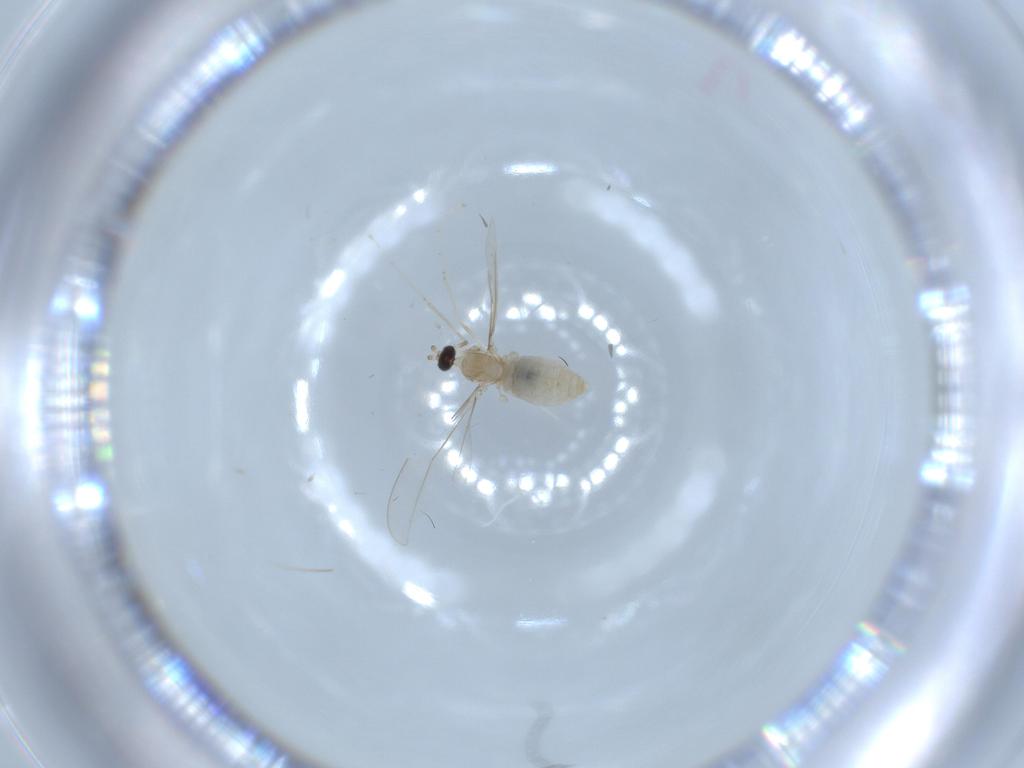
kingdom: Animalia
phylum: Arthropoda
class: Insecta
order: Diptera
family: Cecidomyiidae
